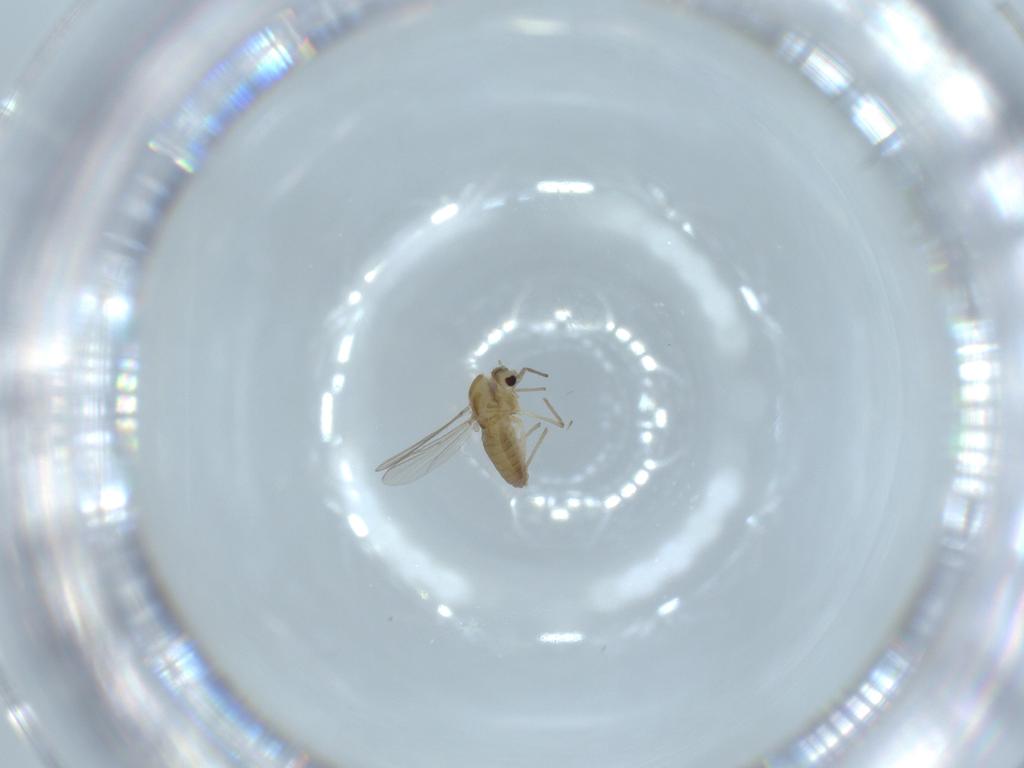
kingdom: Animalia
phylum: Arthropoda
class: Insecta
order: Diptera
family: Chironomidae
